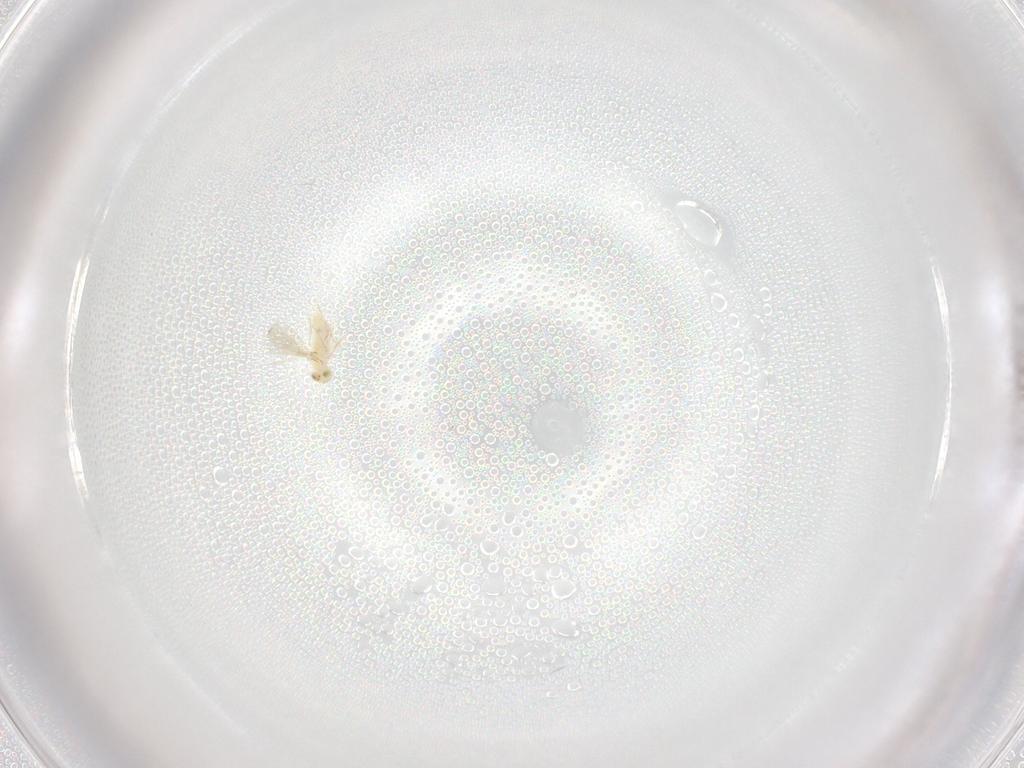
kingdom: Animalia
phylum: Arthropoda
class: Insecta
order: Hymenoptera
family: Aphelinidae
